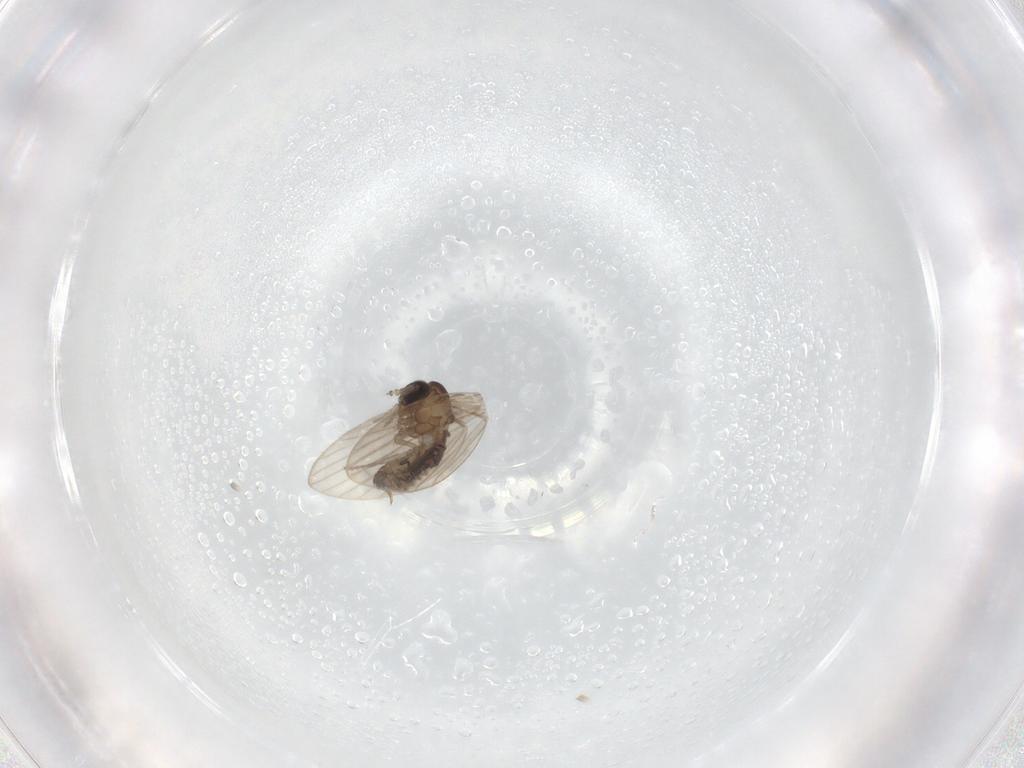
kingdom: Animalia
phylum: Arthropoda
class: Insecta
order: Diptera
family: Psychodidae
